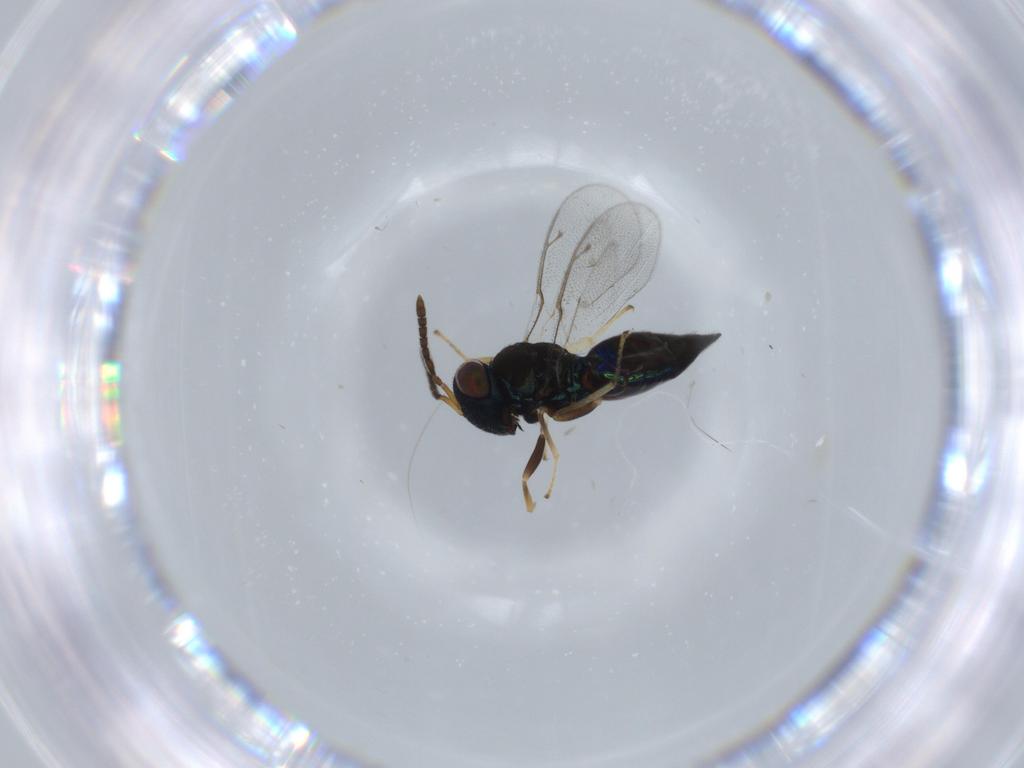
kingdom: Animalia
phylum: Arthropoda
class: Insecta
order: Hymenoptera
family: Pteromalidae
